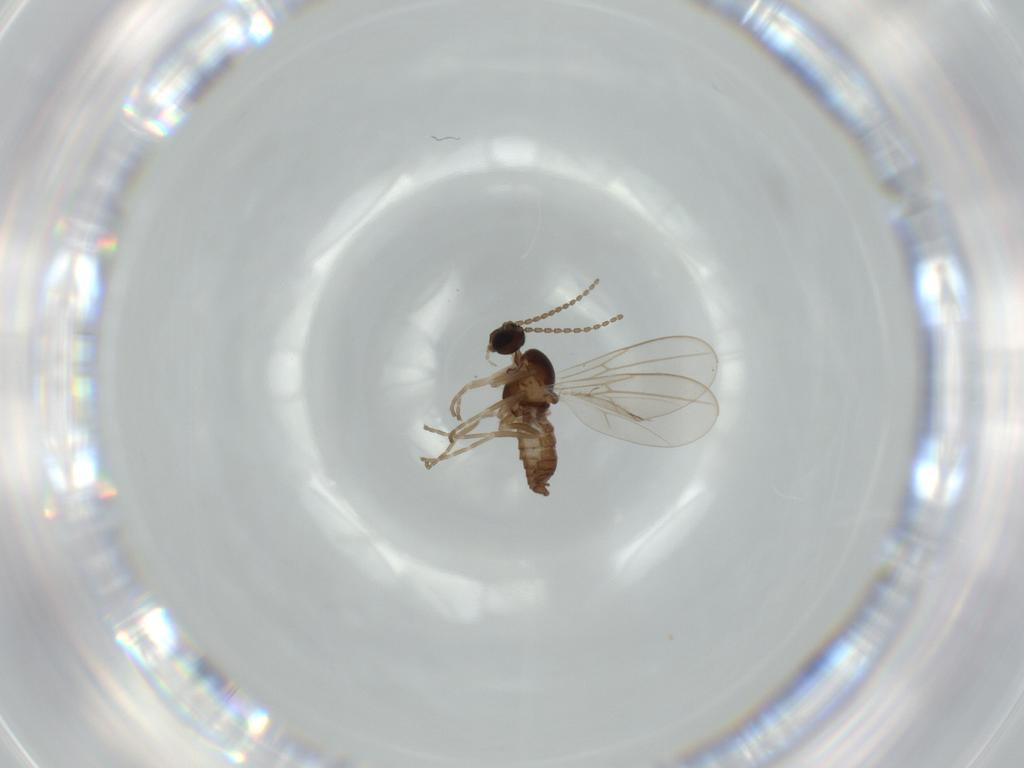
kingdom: Animalia
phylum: Arthropoda
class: Insecta
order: Diptera
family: Cecidomyiidae
